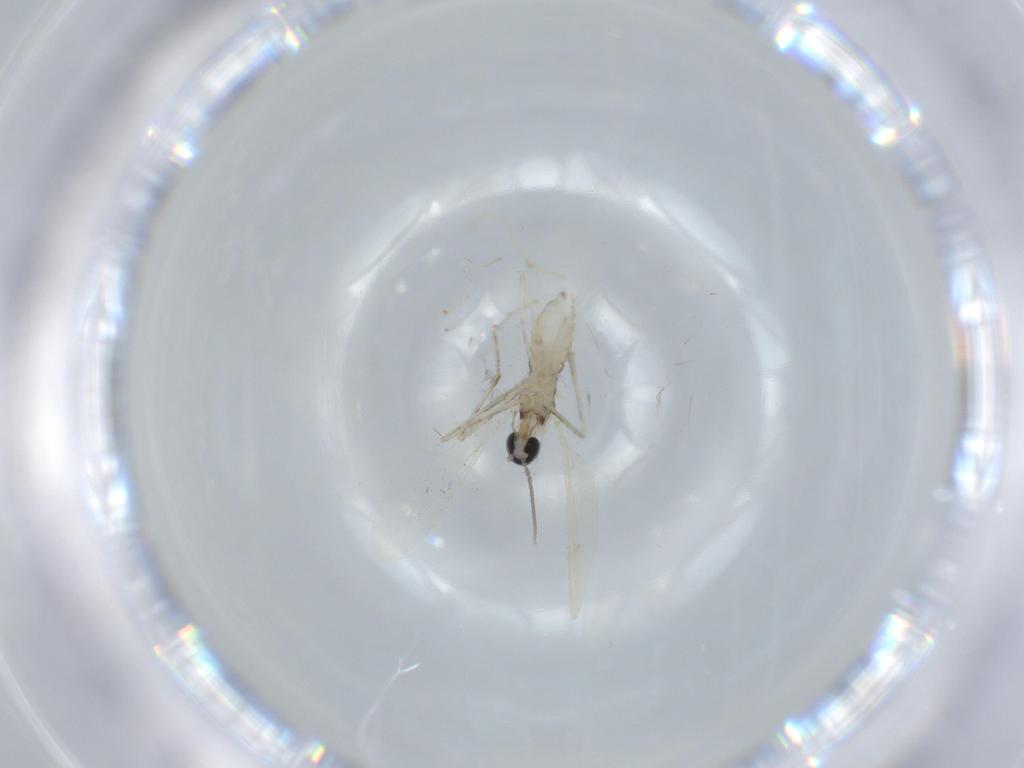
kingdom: Animalia
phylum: Arthropoda
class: Insecta
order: Diptera
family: Cecidomyiidae
